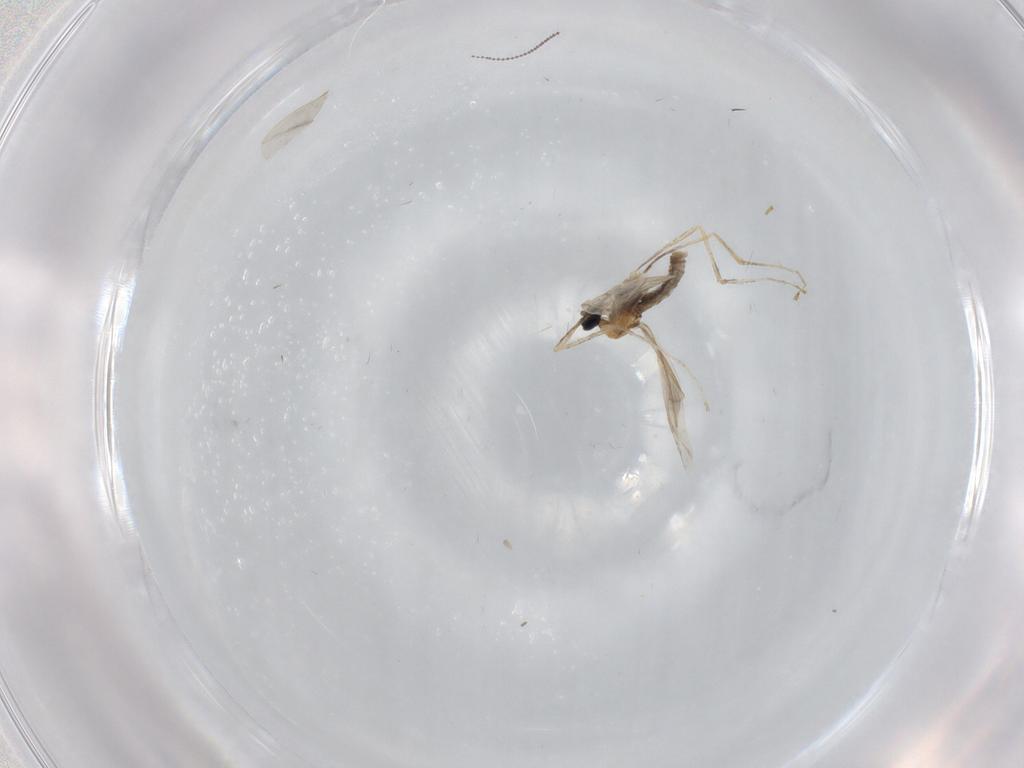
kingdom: Animalia
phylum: Arthropoda
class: Insecta
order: Diptera
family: Cecidomyiidae
